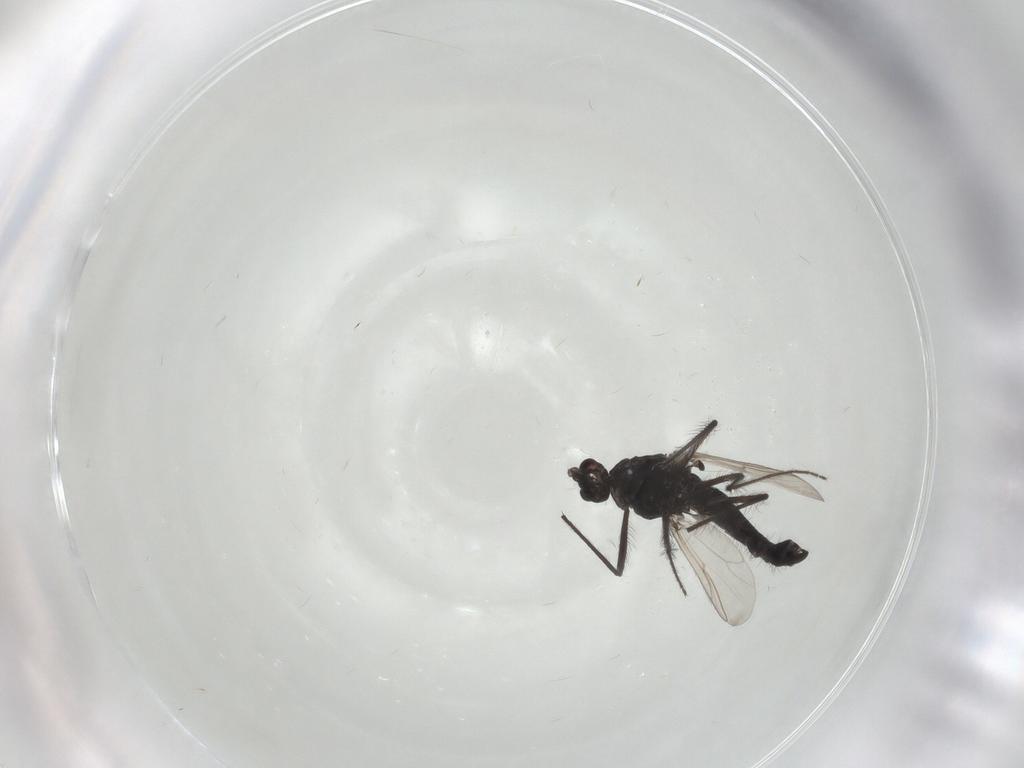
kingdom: Animalia
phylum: Arthropoda
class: Insecta
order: Diptera
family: Chironomidae
